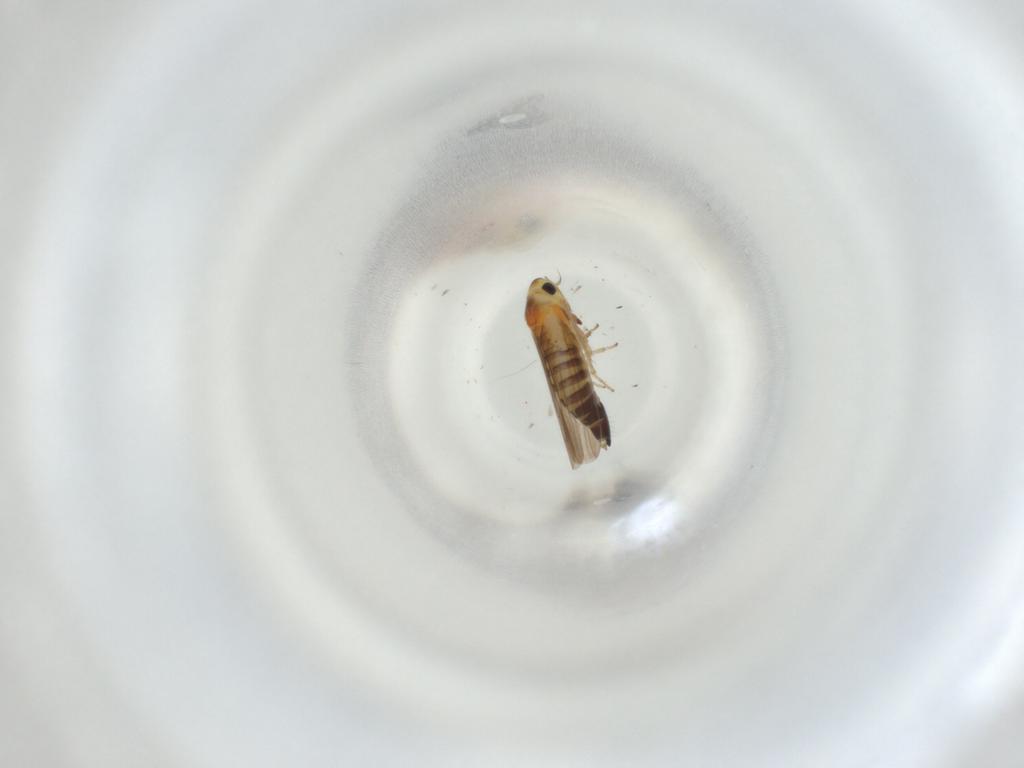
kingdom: Animalia
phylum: Arthropoda
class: Insecta
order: Hemiptera
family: Cicadellidae
